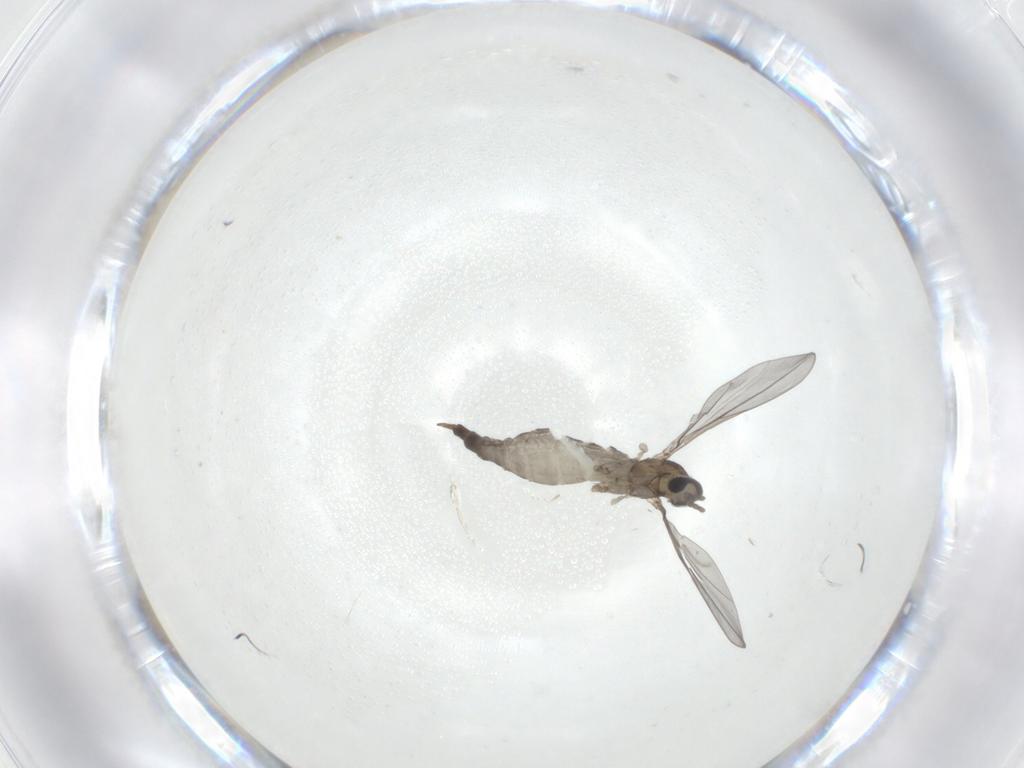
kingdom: Animalia
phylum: Arthropoda
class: Insecta
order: Diptera
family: Cecidomyiidae
